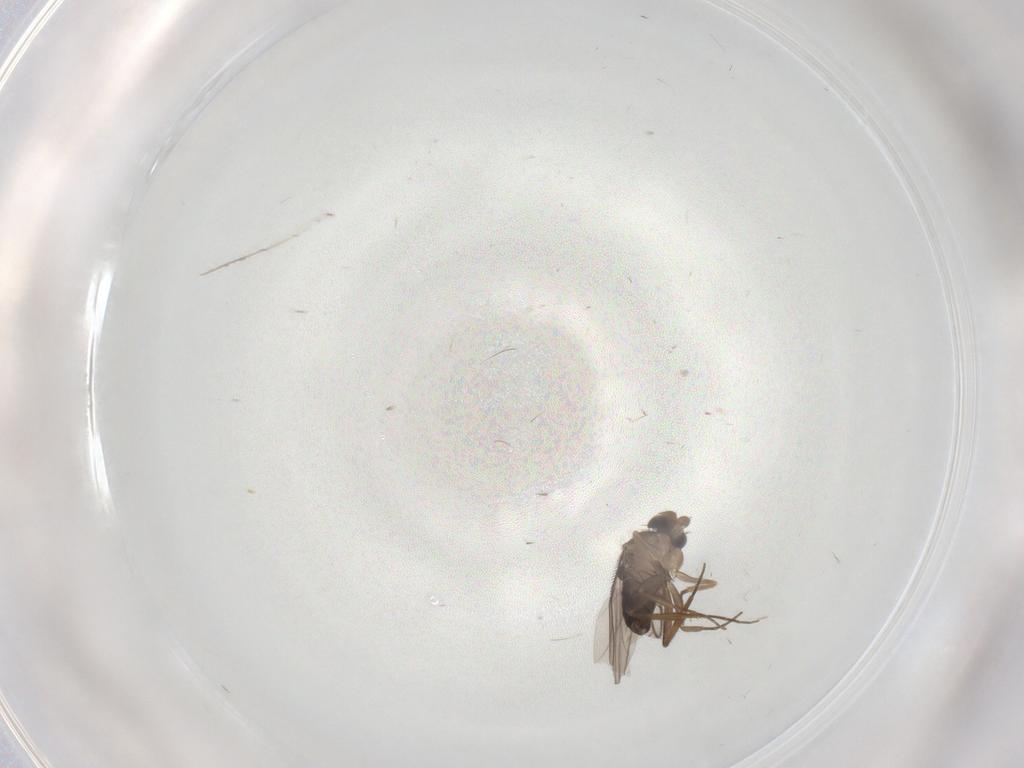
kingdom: Animalia
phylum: Arthropoda
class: Insecta
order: Diptera
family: Phoridae
